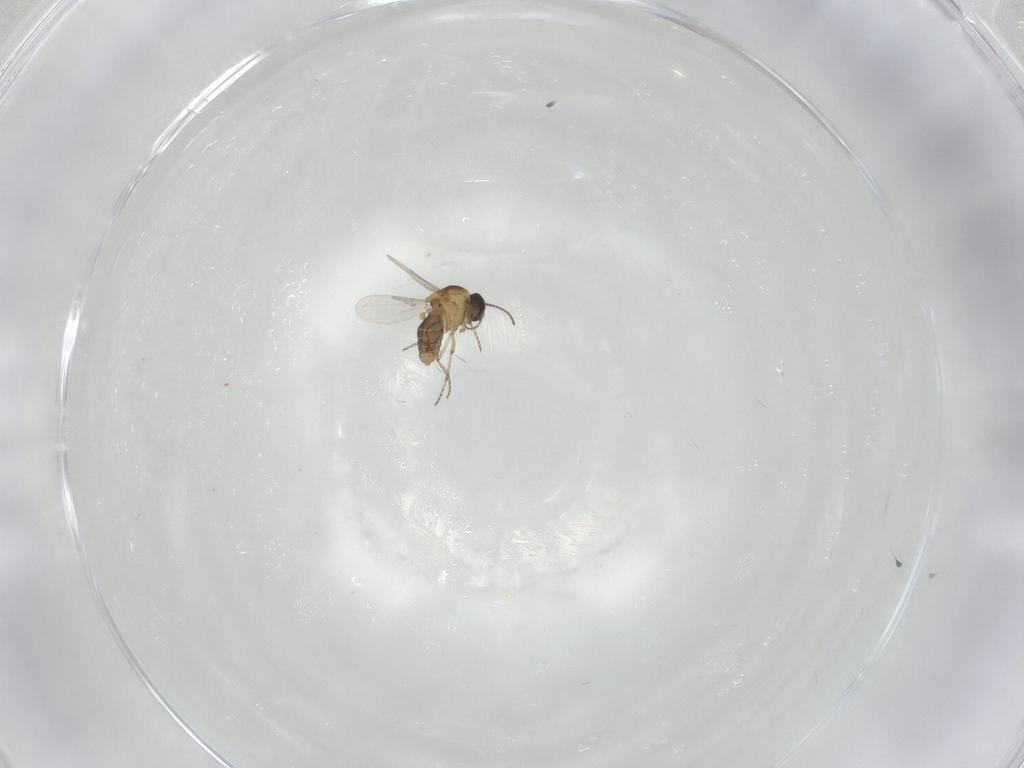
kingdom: Animalia
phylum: Arthropoda
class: Insecta
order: Diptera
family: Ceratopogonidae
